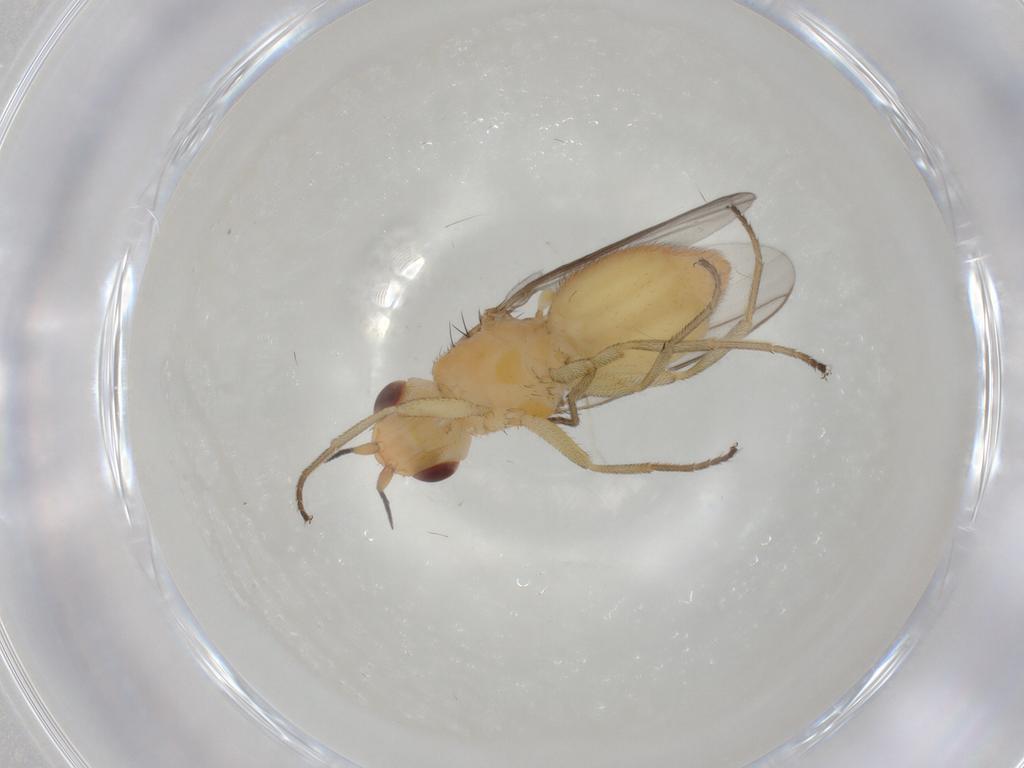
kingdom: Animalia
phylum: Arthropoda
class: Insecta
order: Diptera
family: Chloropidae
